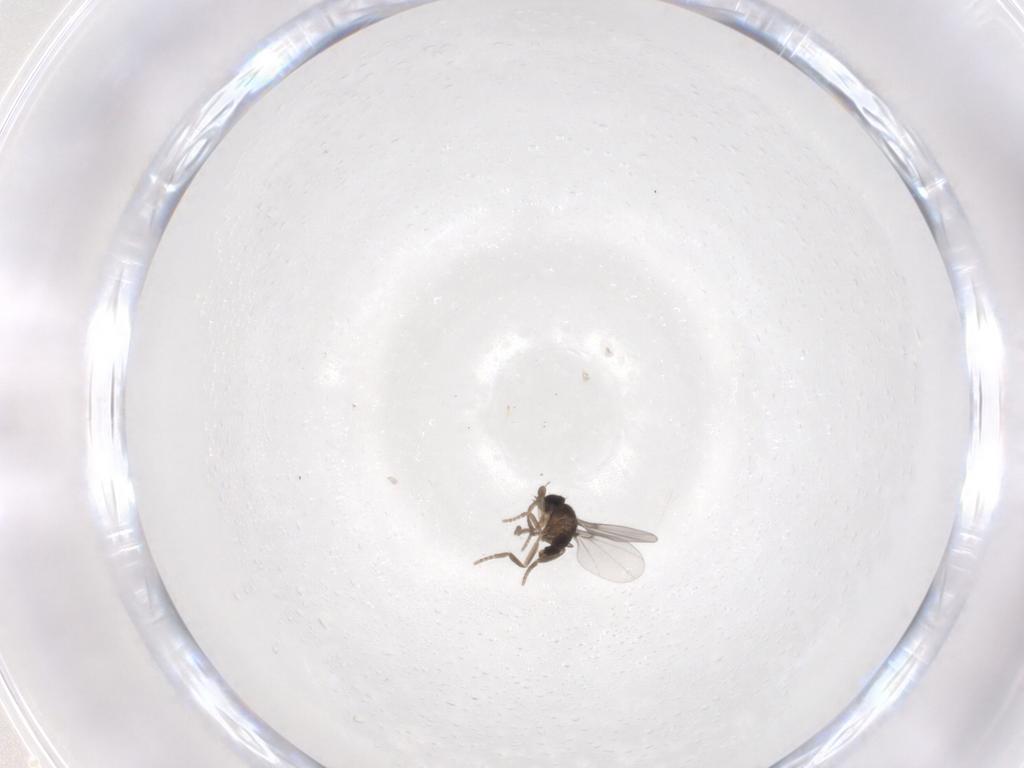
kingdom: Animalia
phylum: Arthropoda
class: Insecta
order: Diptera
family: Phoridae
